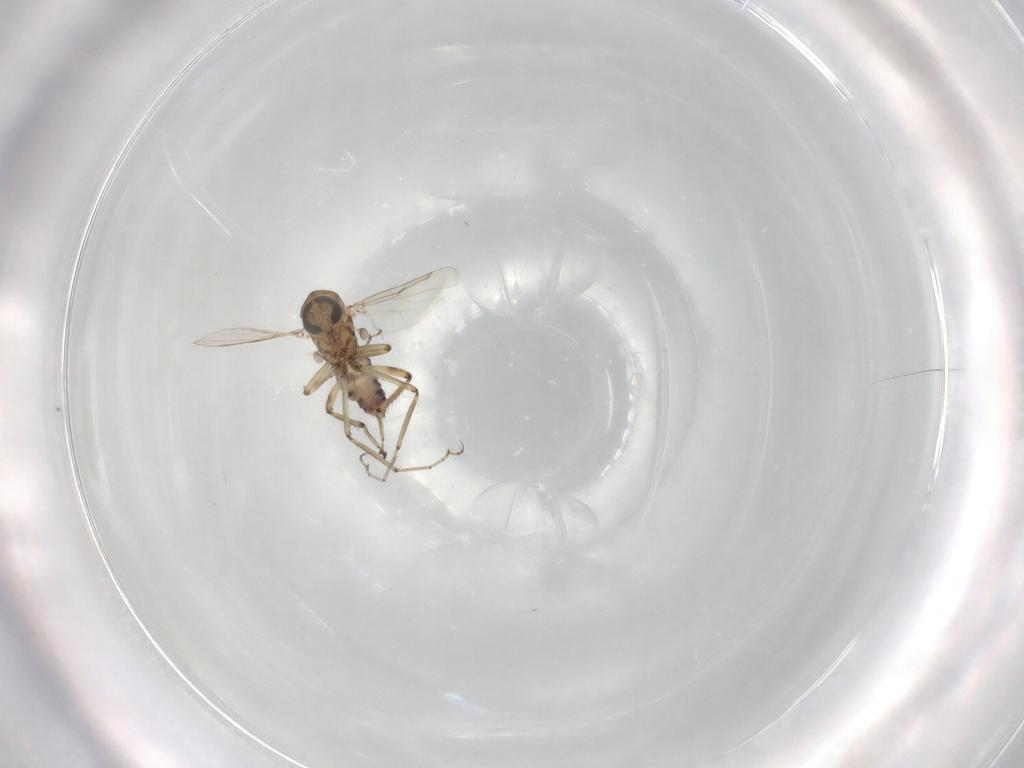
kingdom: Animalia
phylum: Arthropoda
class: Insecta
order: Diptera
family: Ceratopogonidae
